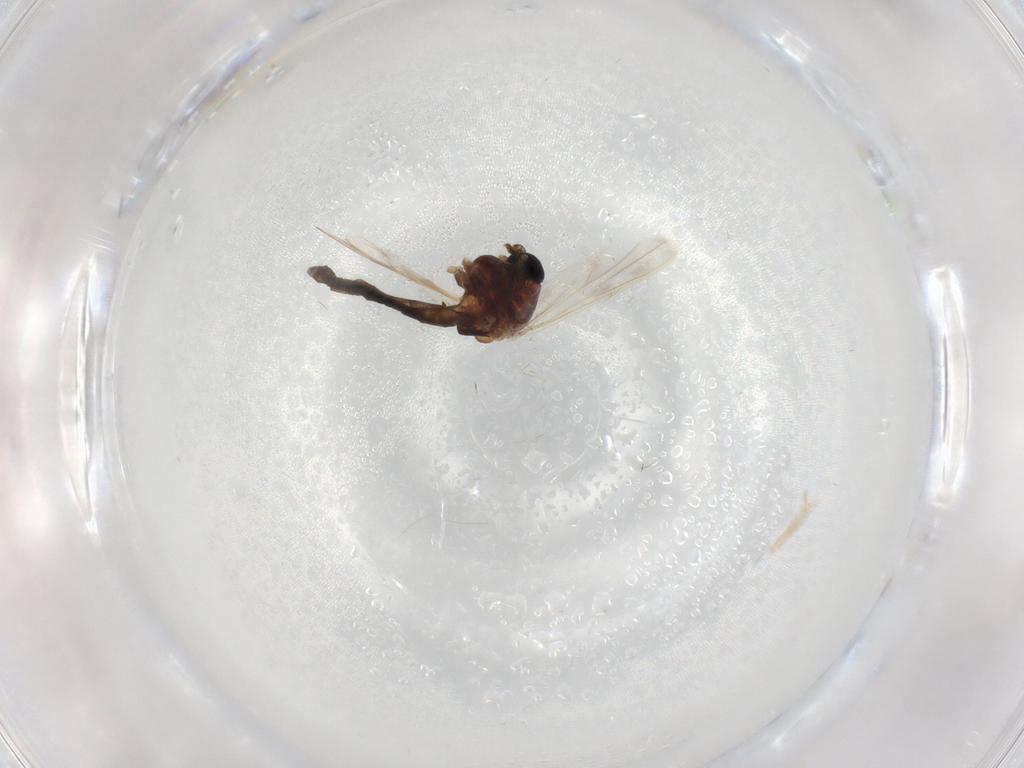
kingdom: Animalia
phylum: Arthropoda
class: Insecta
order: Diptera
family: Chironomidae
